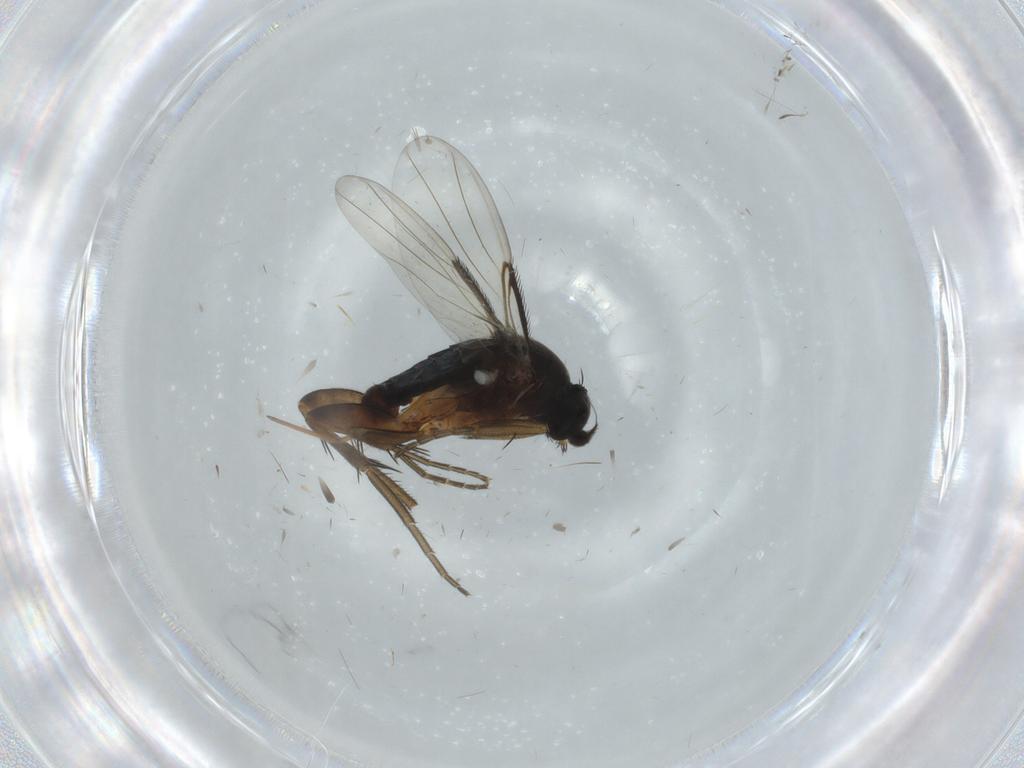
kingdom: Animalia
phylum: Arthropoda
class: Insecta
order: Diptera
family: Phoridae
